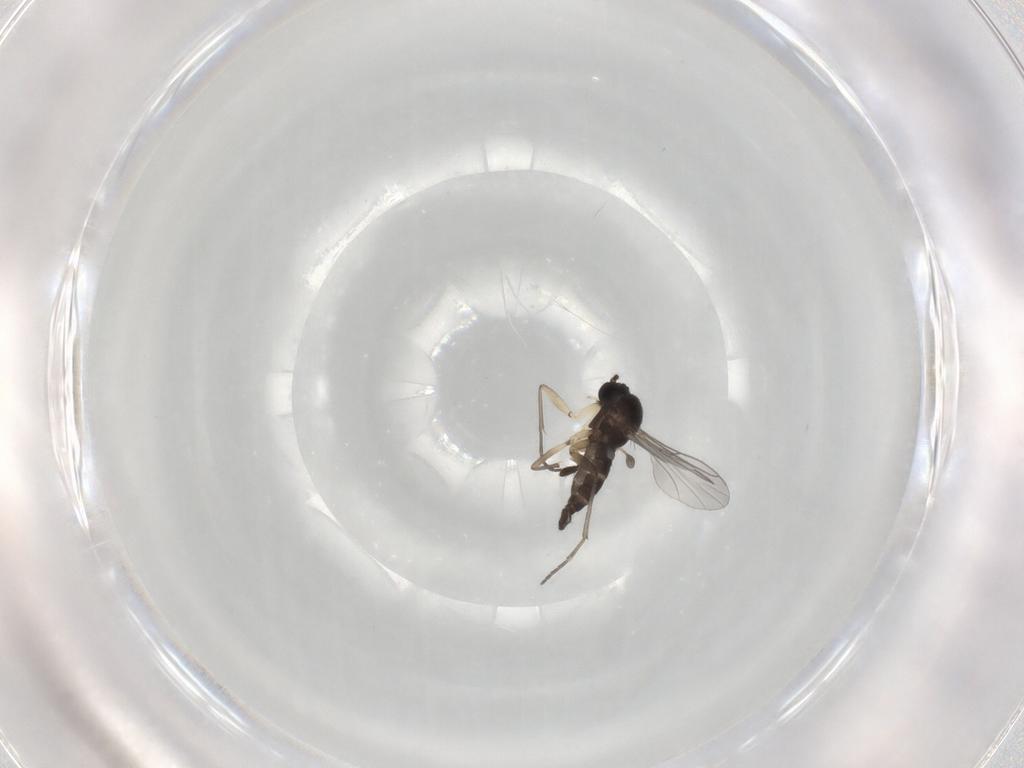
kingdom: Animalia
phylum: Arthropoda
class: Insecta
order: Diptera
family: Sciaridae
